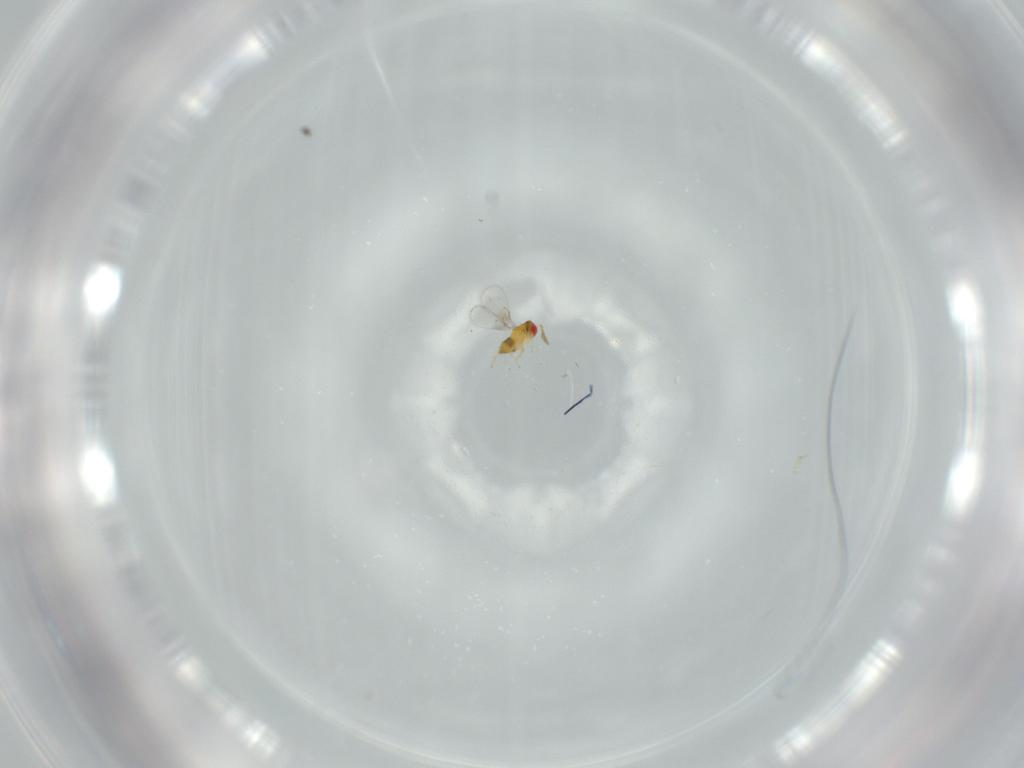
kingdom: Animalia
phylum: Arthropoda
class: Insecta
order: Hymenoptera
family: Trichogrammatidae
